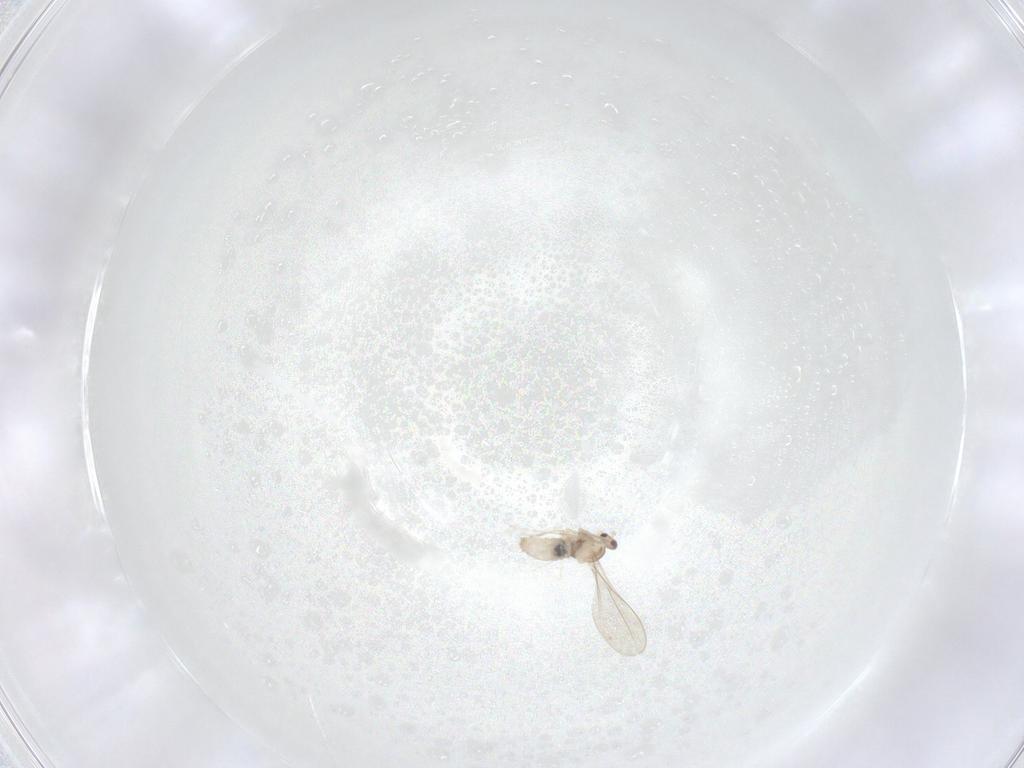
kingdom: Animalia
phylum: Arthropoda
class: Insecta
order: Diptera
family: Cecidomyiidae
